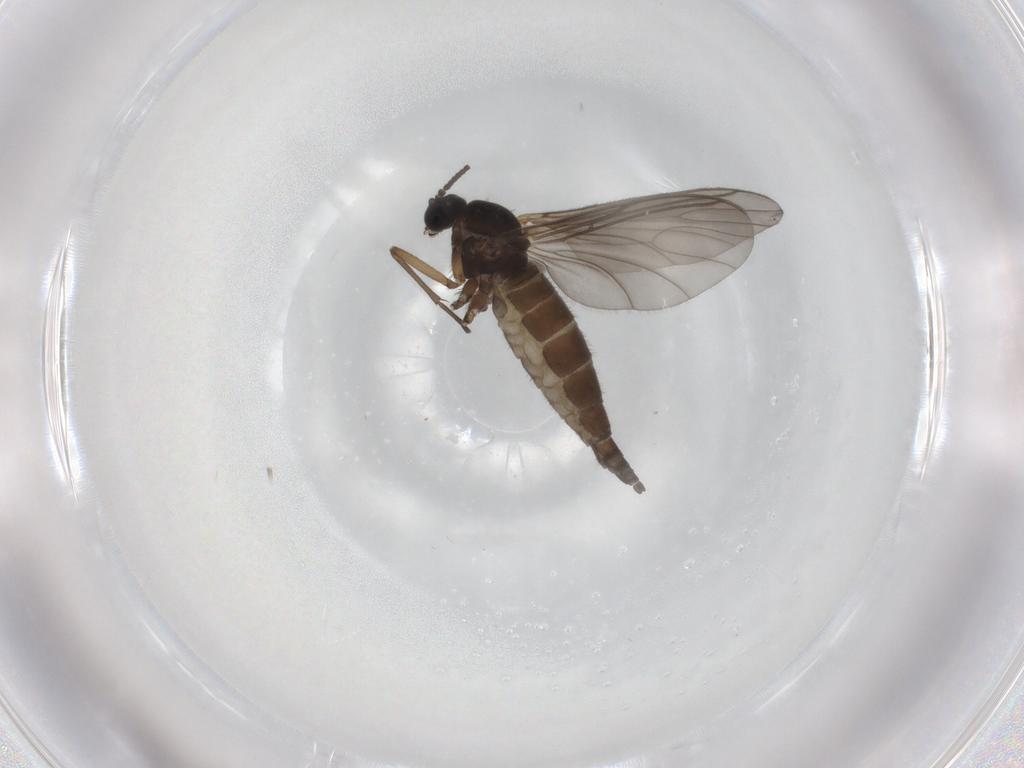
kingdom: Animalia
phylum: Arthropoda
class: Insecta
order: Diptera
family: Sciaridae
